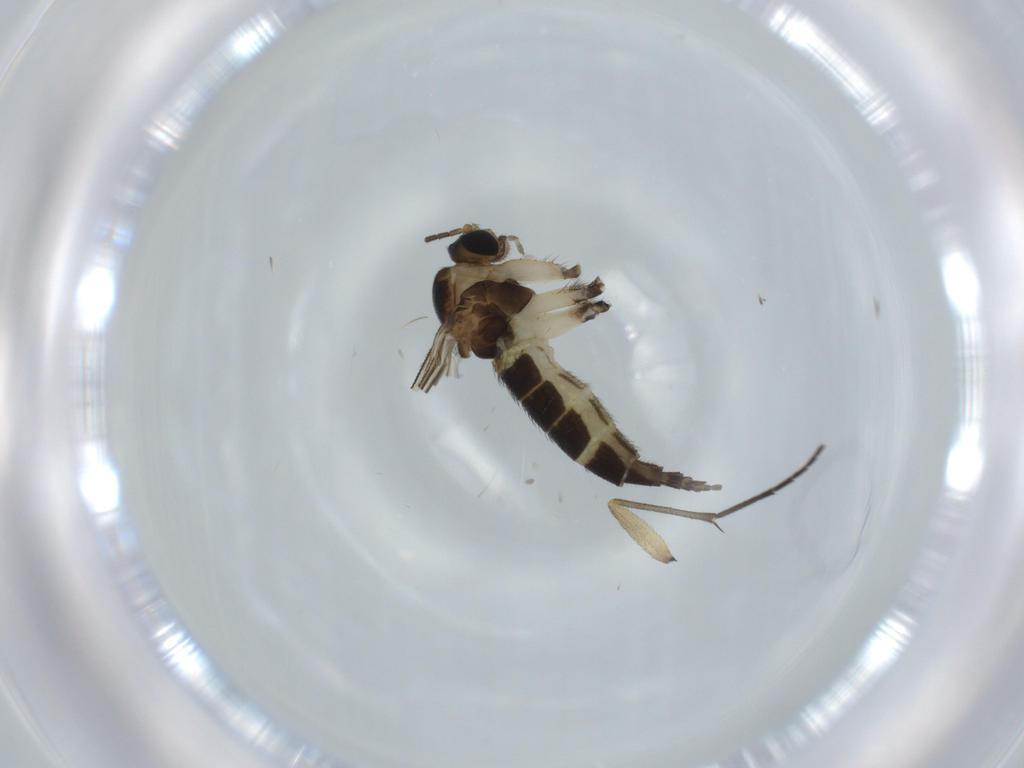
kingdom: Animalia
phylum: Arthropoda
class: Insecta
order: Diptera
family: Sciaridae
